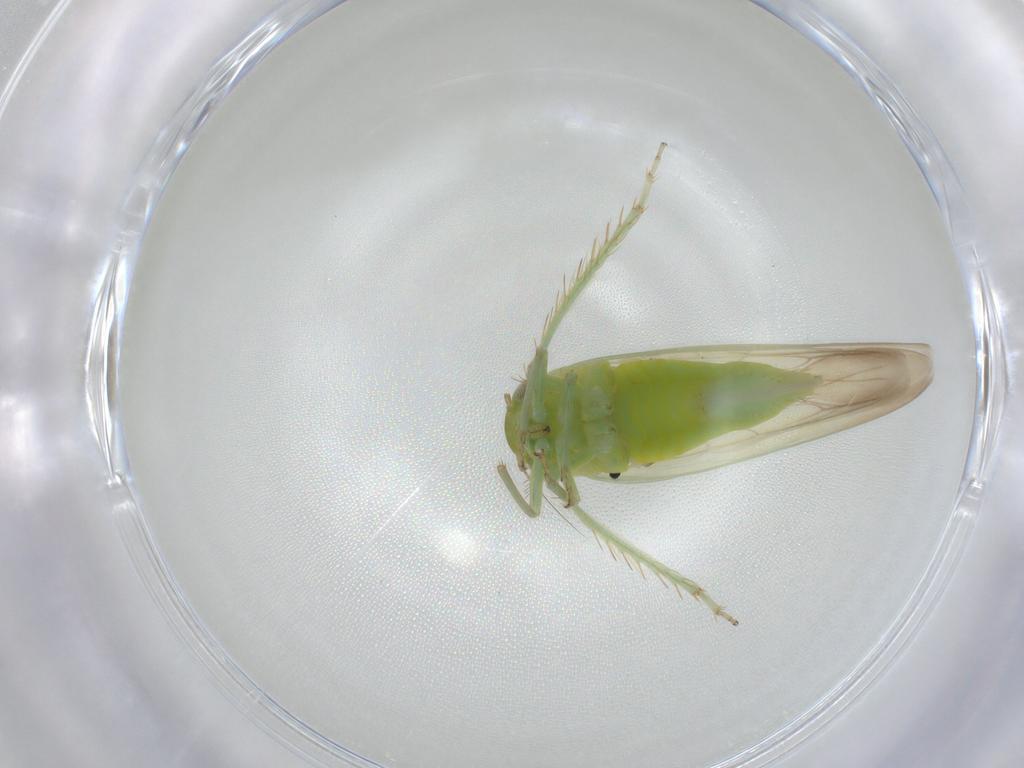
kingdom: Animalia
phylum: Arthropoda
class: Insecta
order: Hemiptera
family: Cicadellidae
